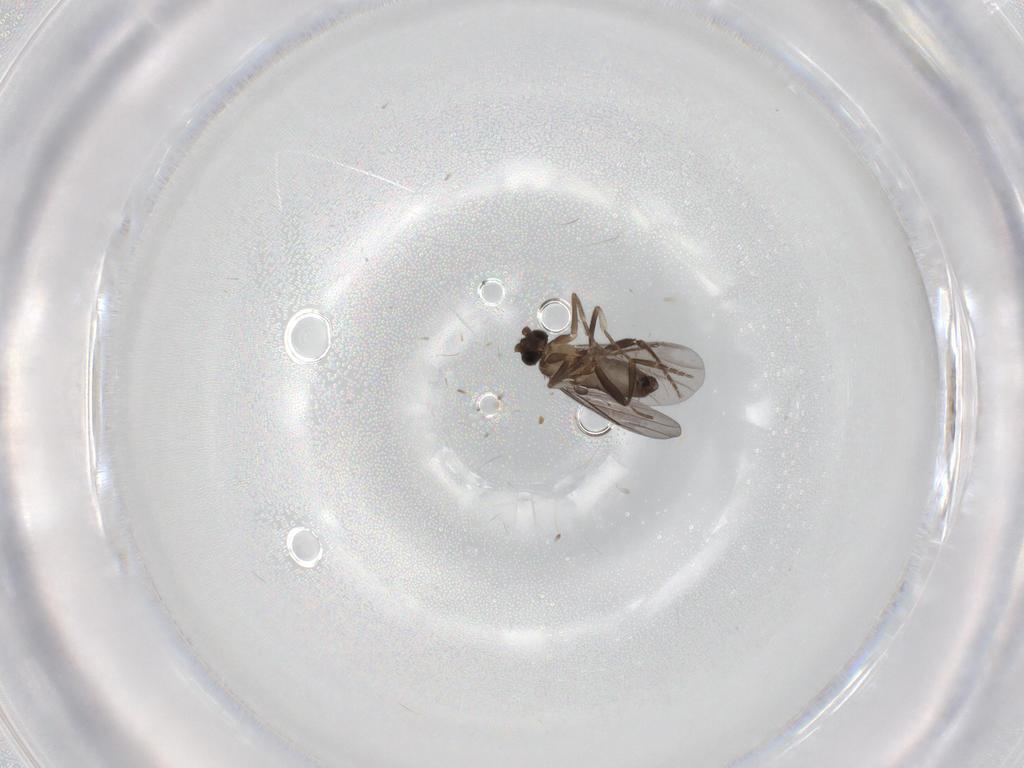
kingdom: Animalia
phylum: Arthropoda
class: Insecta
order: Diptera
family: Phoridae
